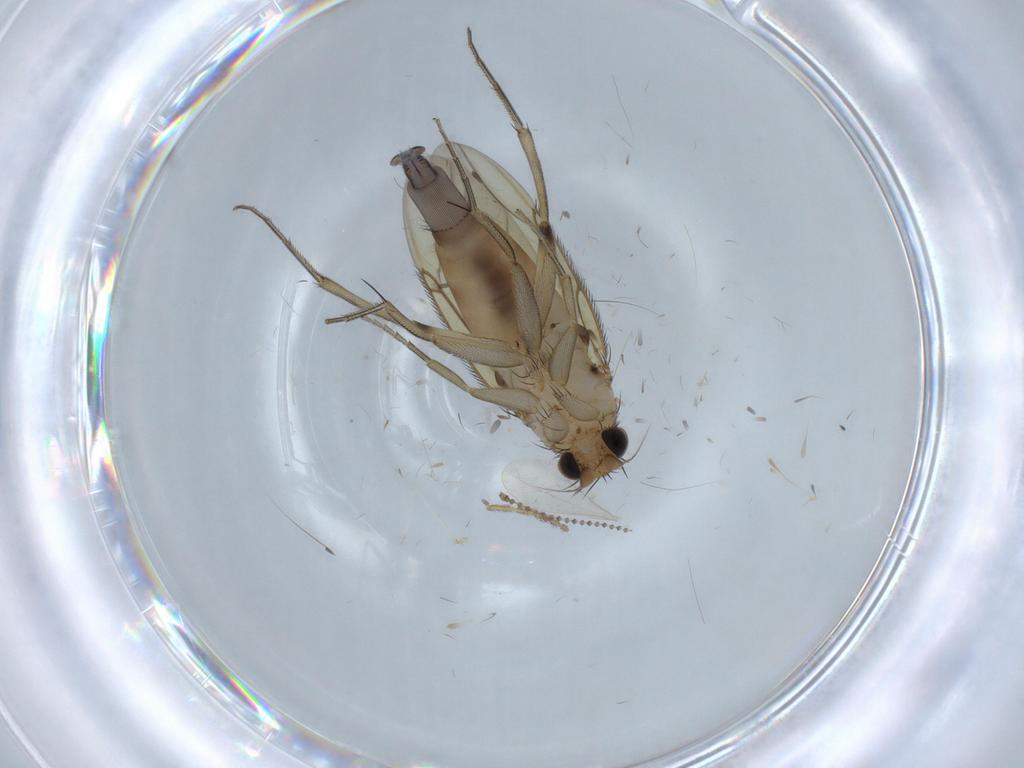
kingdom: Animalia
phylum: Arthropoda
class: Insecta
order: Diptera
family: Phoridae
